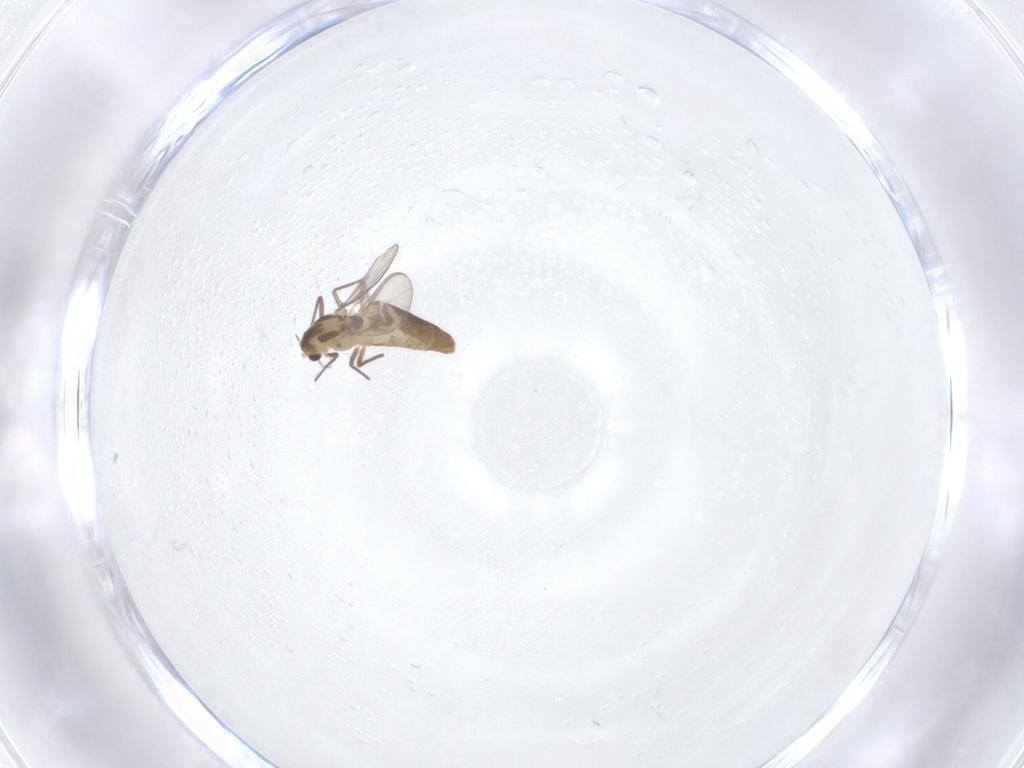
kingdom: Animalia
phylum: Arthropoda
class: Insecta
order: Diptera
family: Chironomidae
